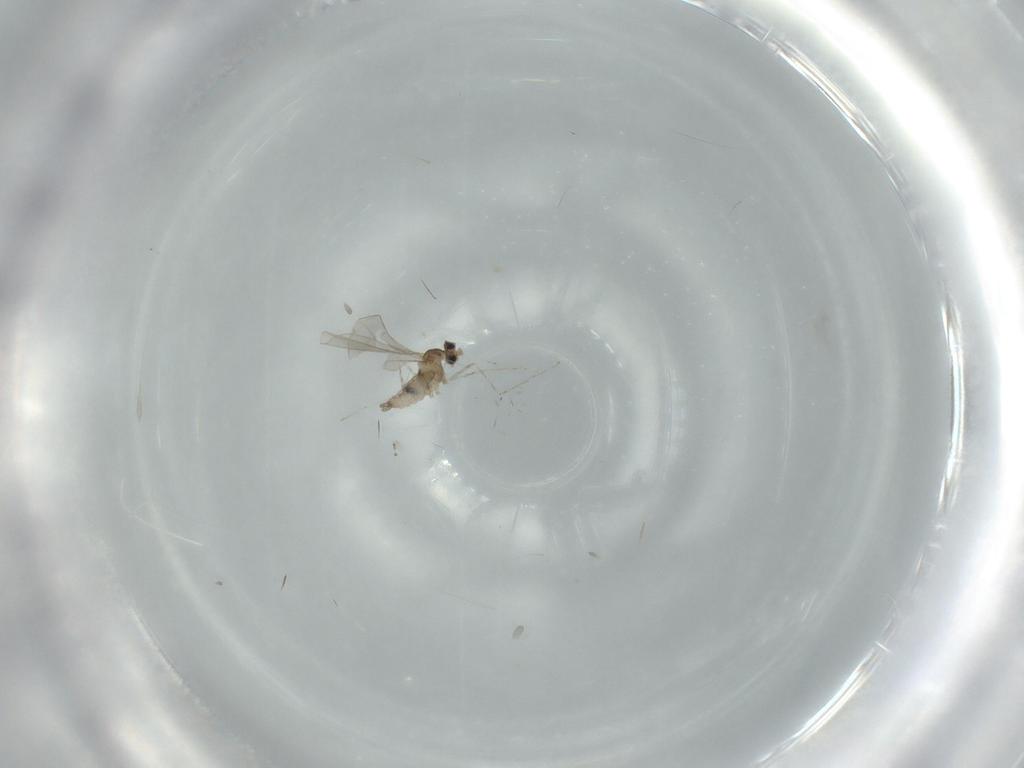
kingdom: Animalia
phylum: Arthropoda
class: Insecta
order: Diptera
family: Cecidomyiidae
